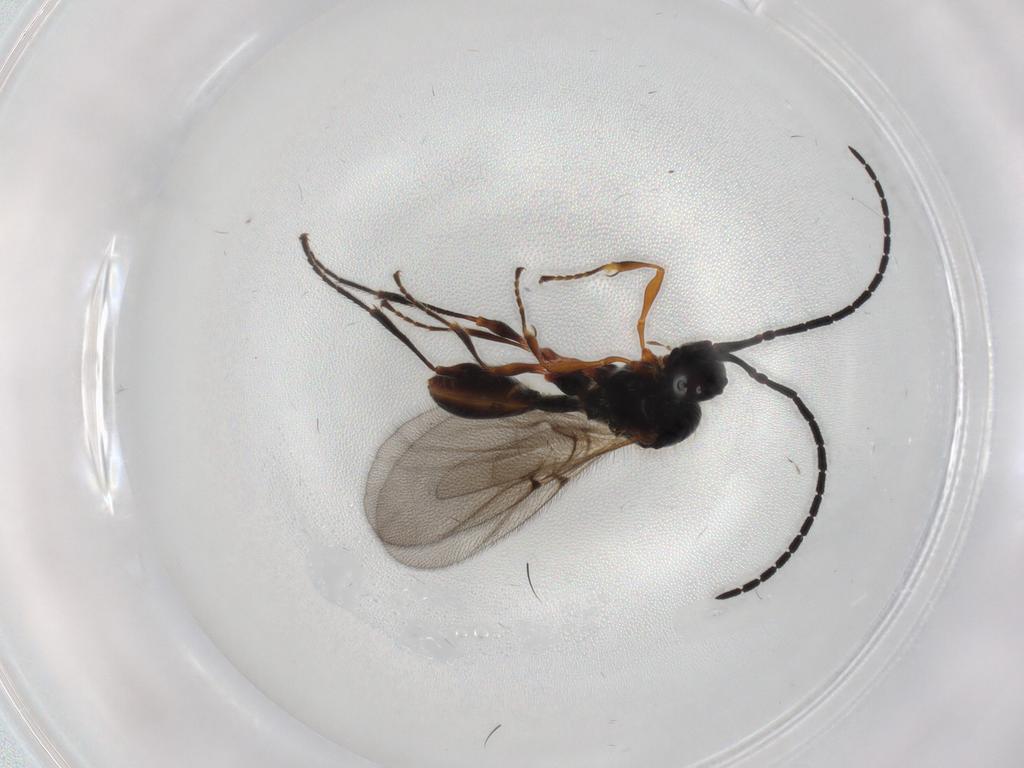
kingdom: Animalia
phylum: Arthropoda
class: Insecta
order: Hymenoptera
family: Diapriidae
